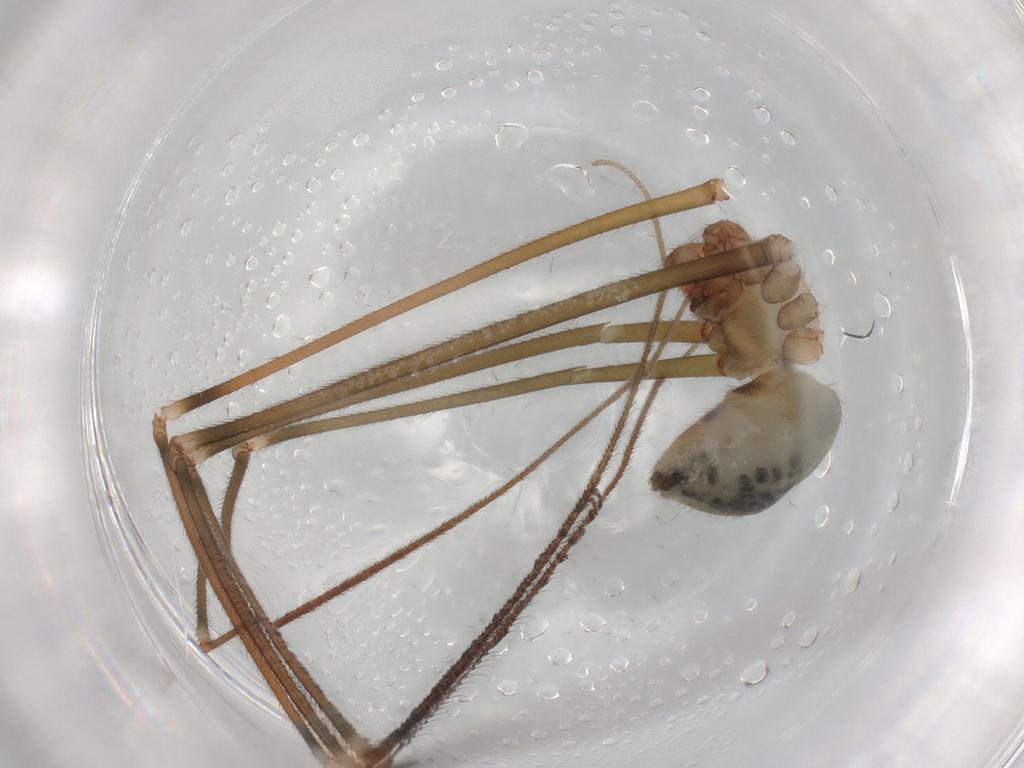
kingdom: Animalia
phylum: Arthropoda
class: Arachnida
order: Araneae
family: Pholcidae
